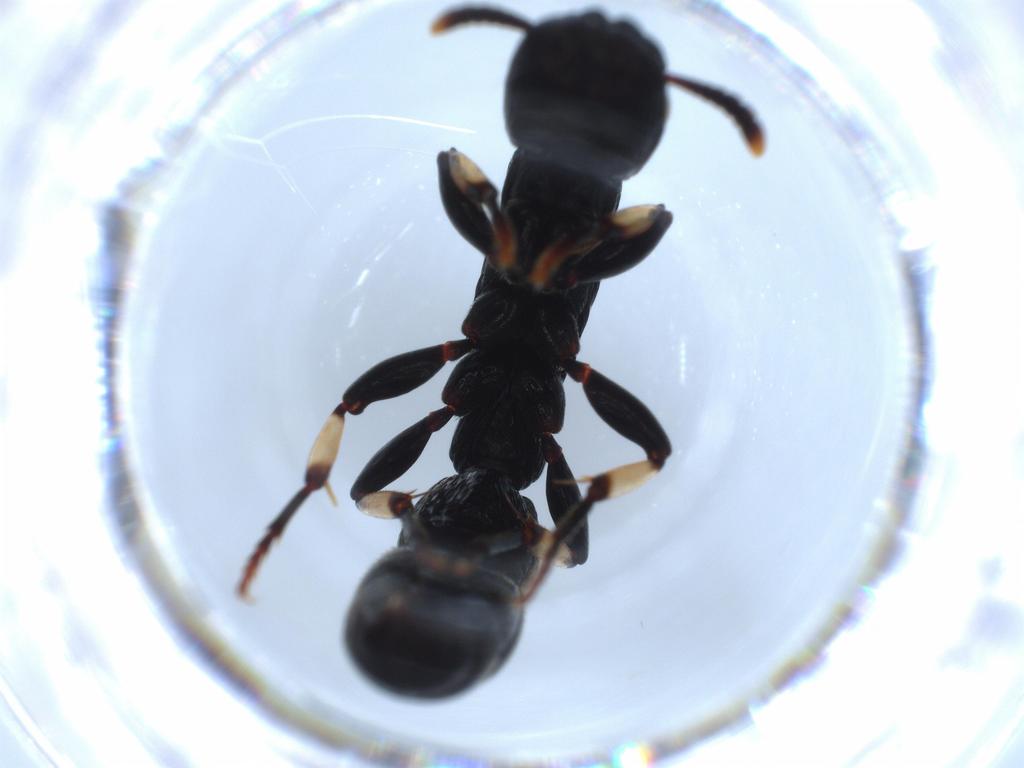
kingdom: Animalia
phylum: Arthropoda
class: Insecta
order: Hymenoptera
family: Formicidae
